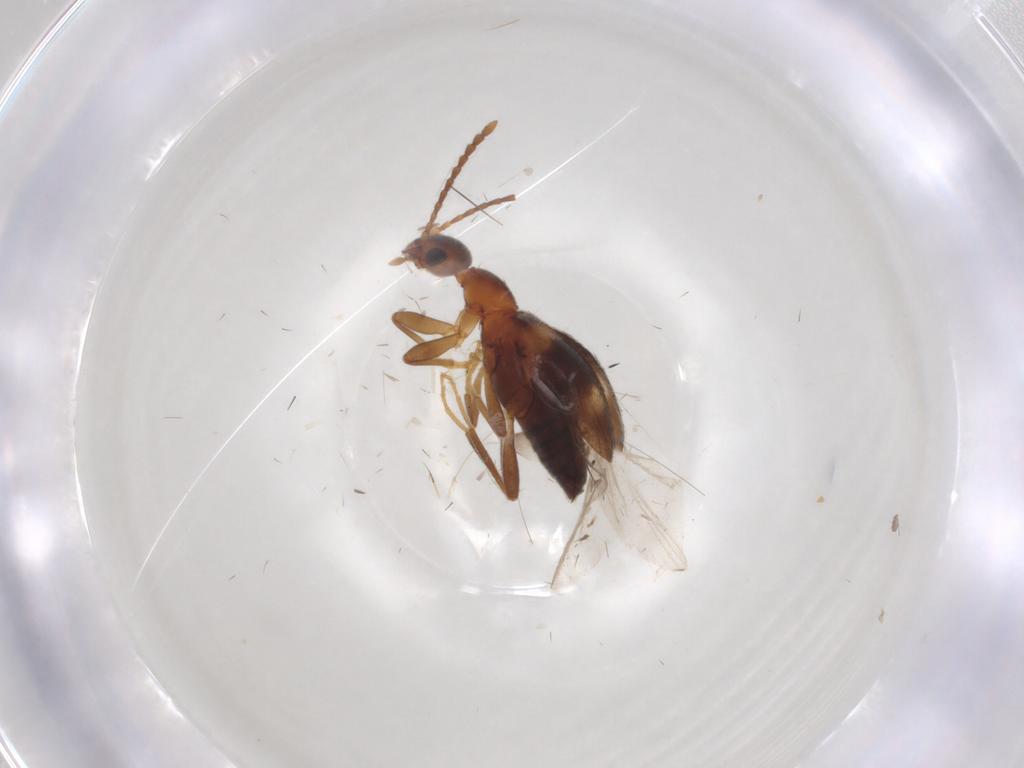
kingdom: Animalia
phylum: Arthropoda
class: Insecta
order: Coleoptera
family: Anthicidae
